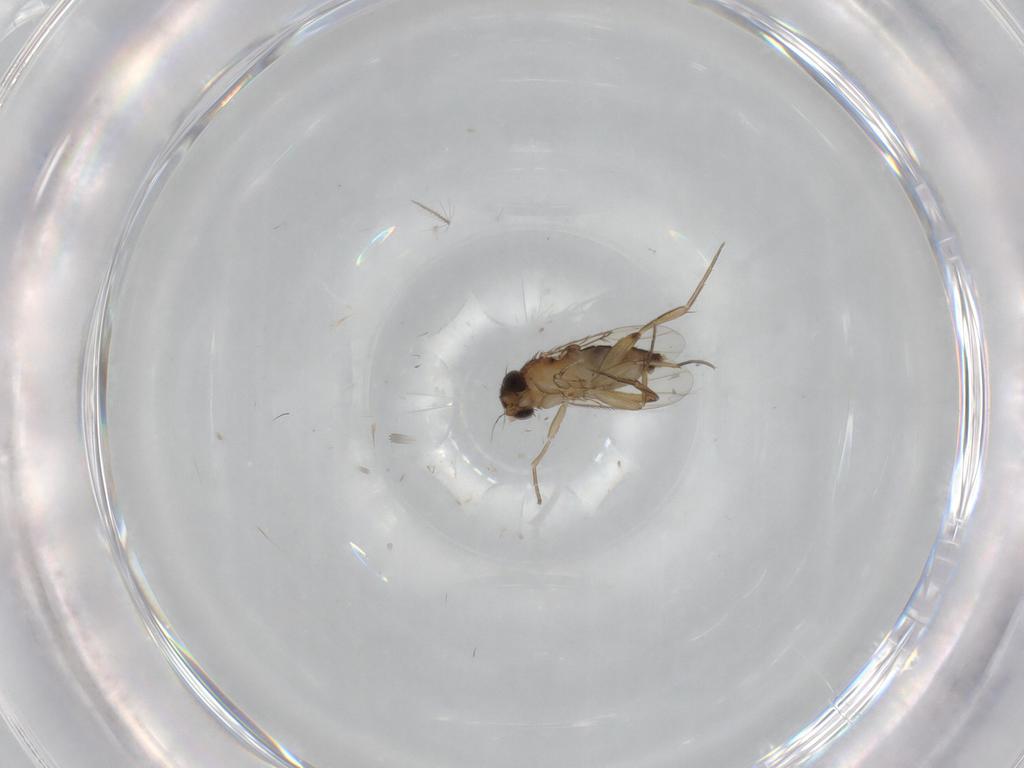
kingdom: Animalia
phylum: Arthropoda
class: Insecta
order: Diptera
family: Phoridae
